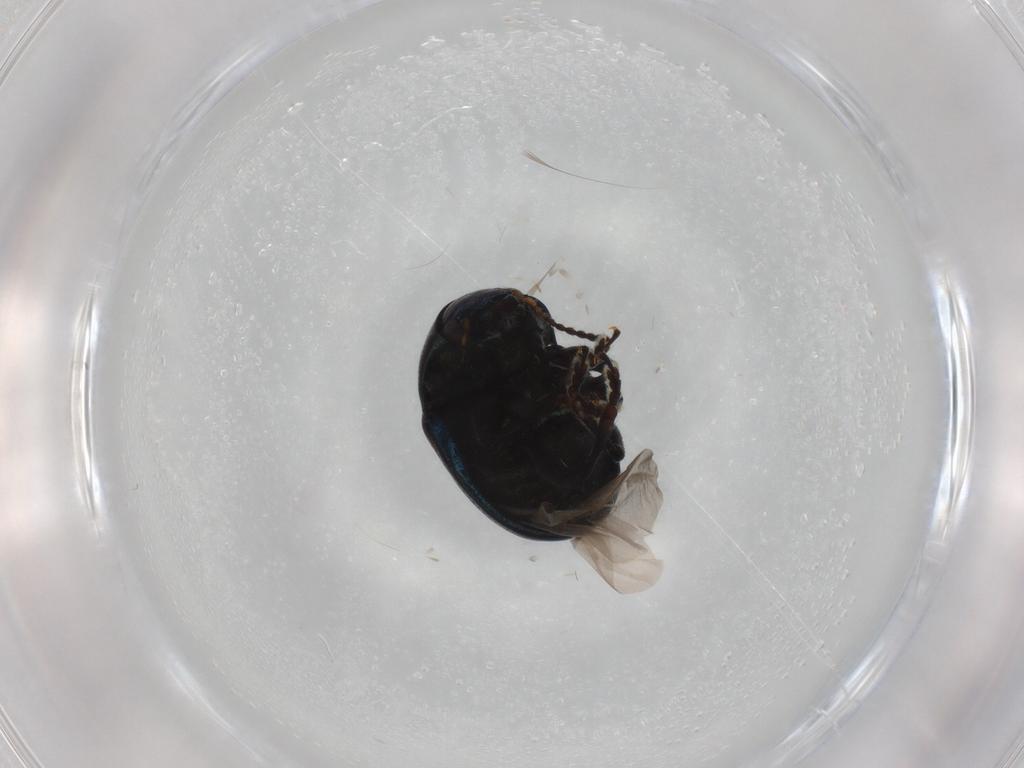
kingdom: Animalia
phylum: Arthropoda
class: Insecta
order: Coleoptera
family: Chrysomelidae
